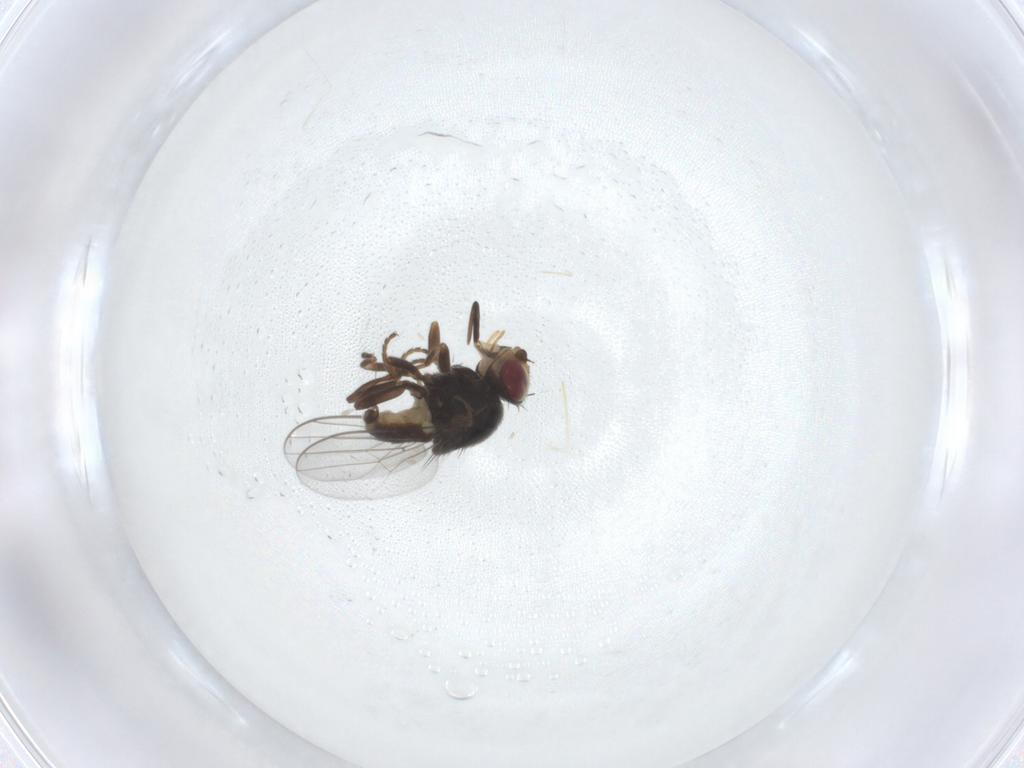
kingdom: Animalia
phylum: Arthropoda
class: Insecta
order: Diptera
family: Chloropidae
